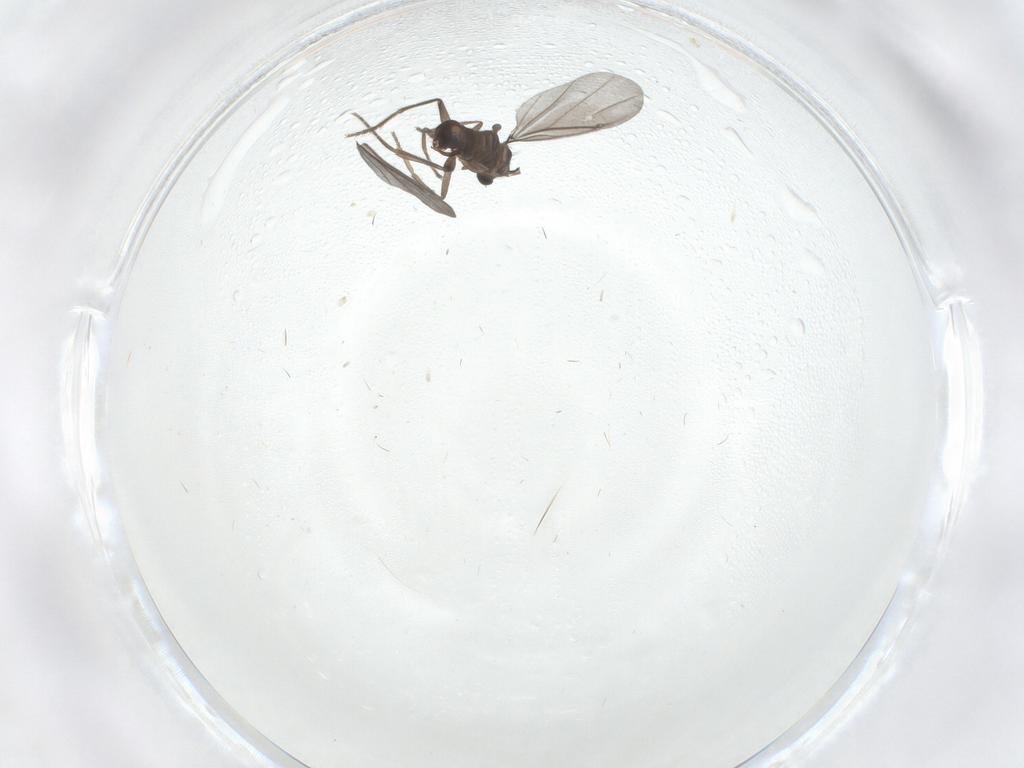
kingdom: Animalia
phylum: Arthropoda
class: Insecta
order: Diptera
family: Phoridae
